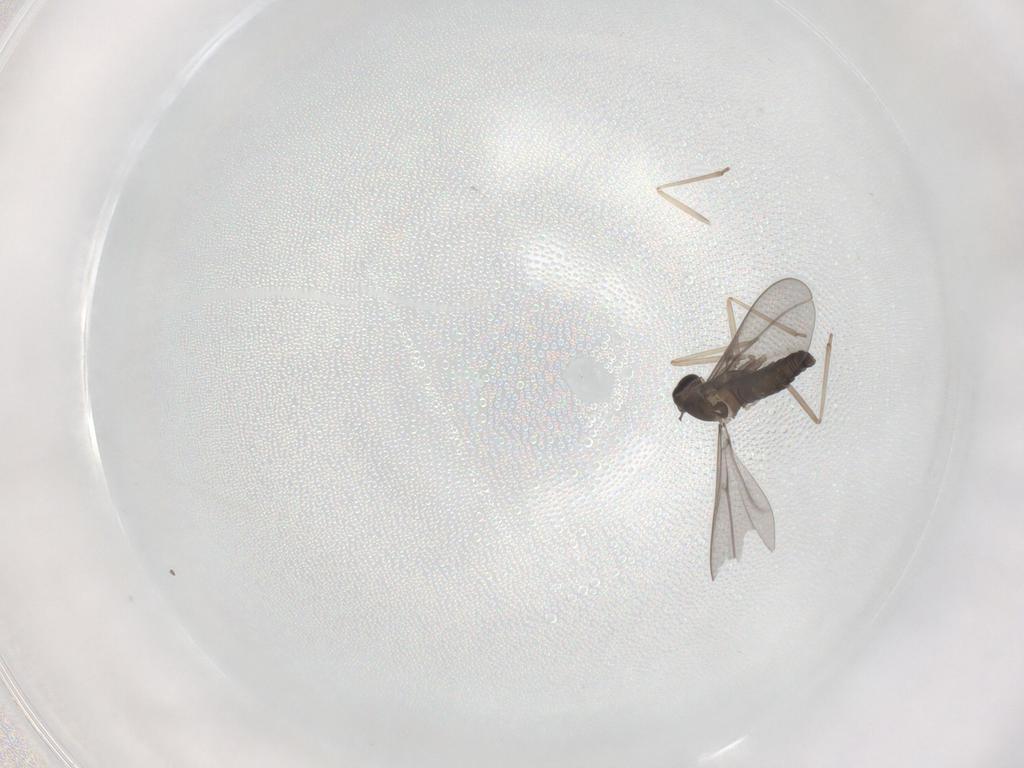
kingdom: Animalia
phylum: Arthropoda
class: Insecta
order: Diptera
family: Cecidomyiidae
